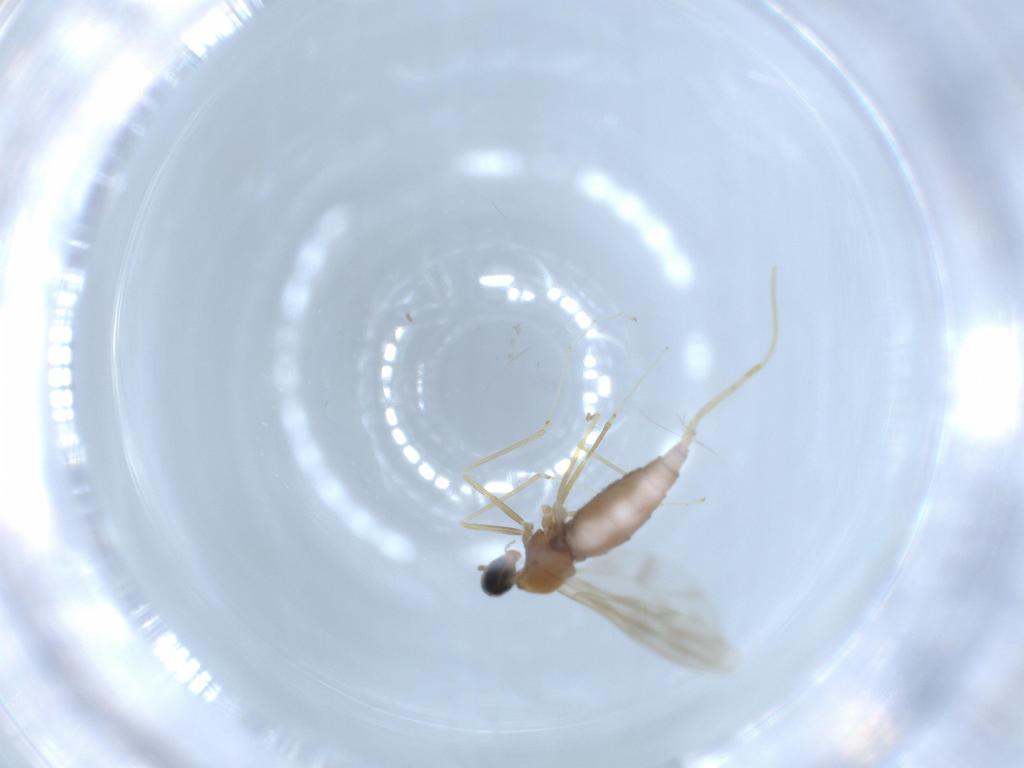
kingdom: Animalia
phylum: Arthropoda
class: Insecta
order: Diptera
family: Cecidomyiidae
